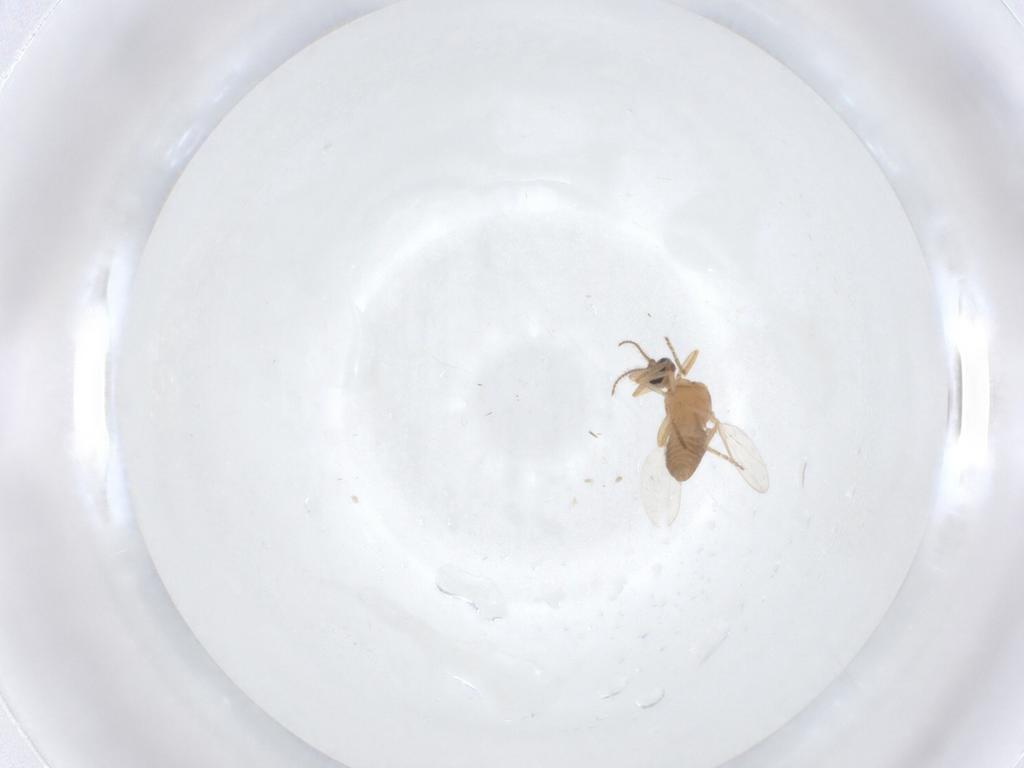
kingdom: Animalia
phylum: Arthropoda
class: Insecta
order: Diptera
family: Ceratopogonidae
